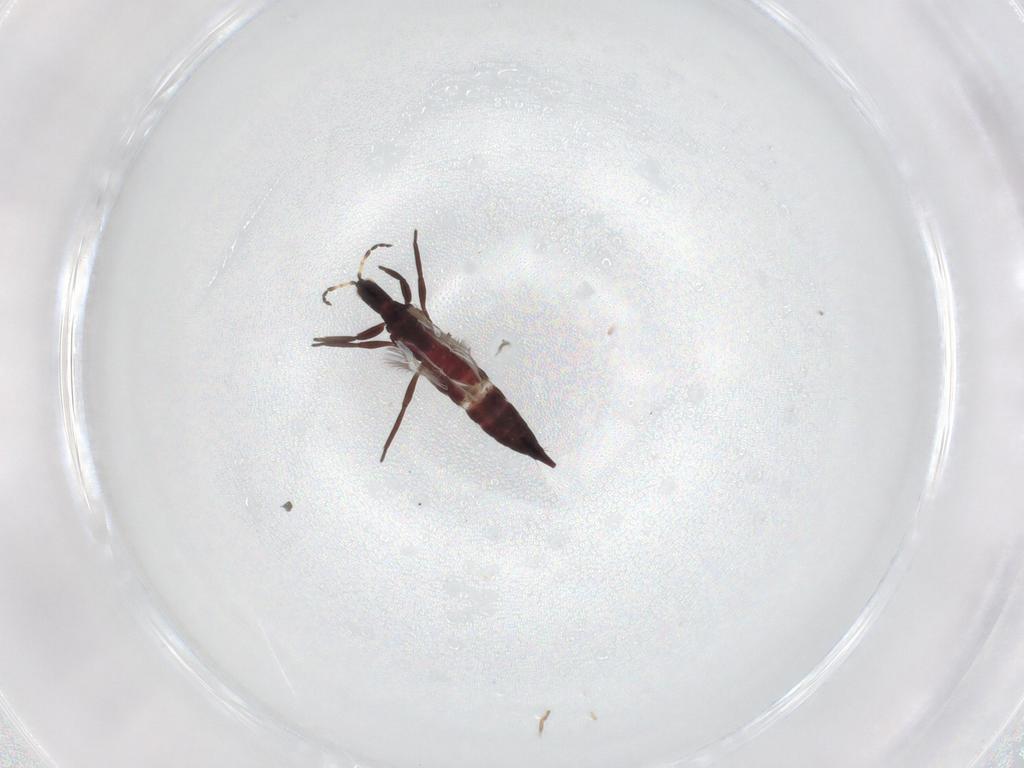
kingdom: Animalia
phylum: Arthropoda
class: Insecta
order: Thysanoptera
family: Phlaeothripidae
